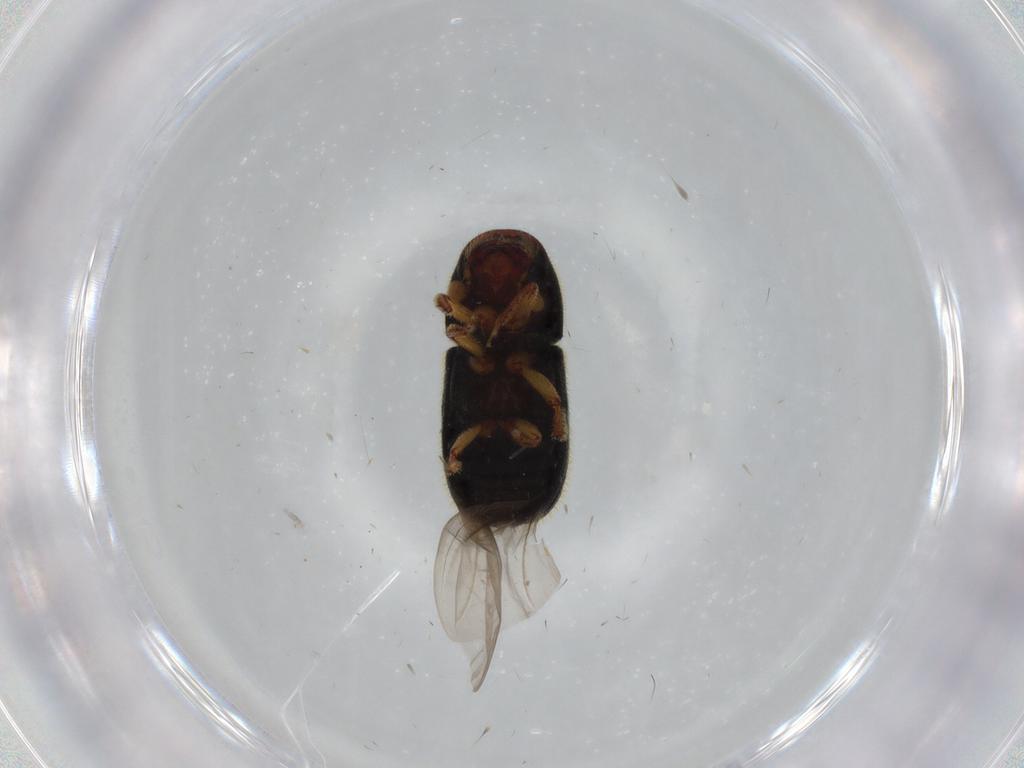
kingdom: Animalia
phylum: Arthropoda
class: Insecta
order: Coleoptera
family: Curculionidae
